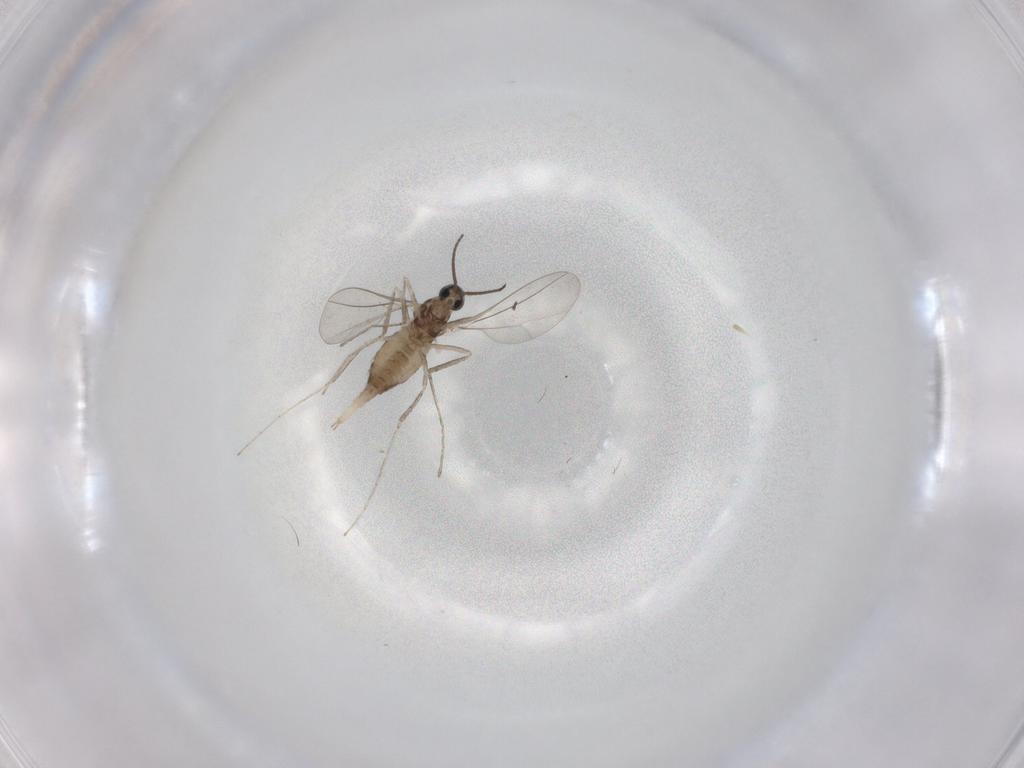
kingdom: Animalia
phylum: Arthropoda
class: Insecta
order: Diptera
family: Cecidomyiidae
